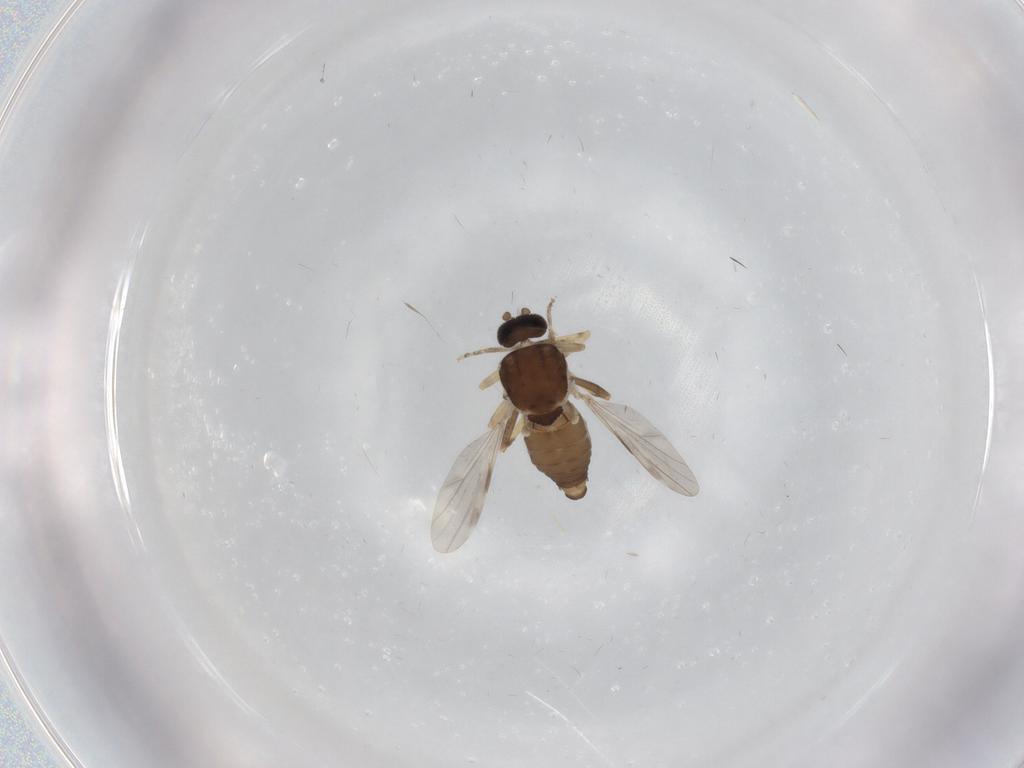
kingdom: Animalia
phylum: Arthropoda
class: Insecta
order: Diptera
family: Ceratopogonidae
